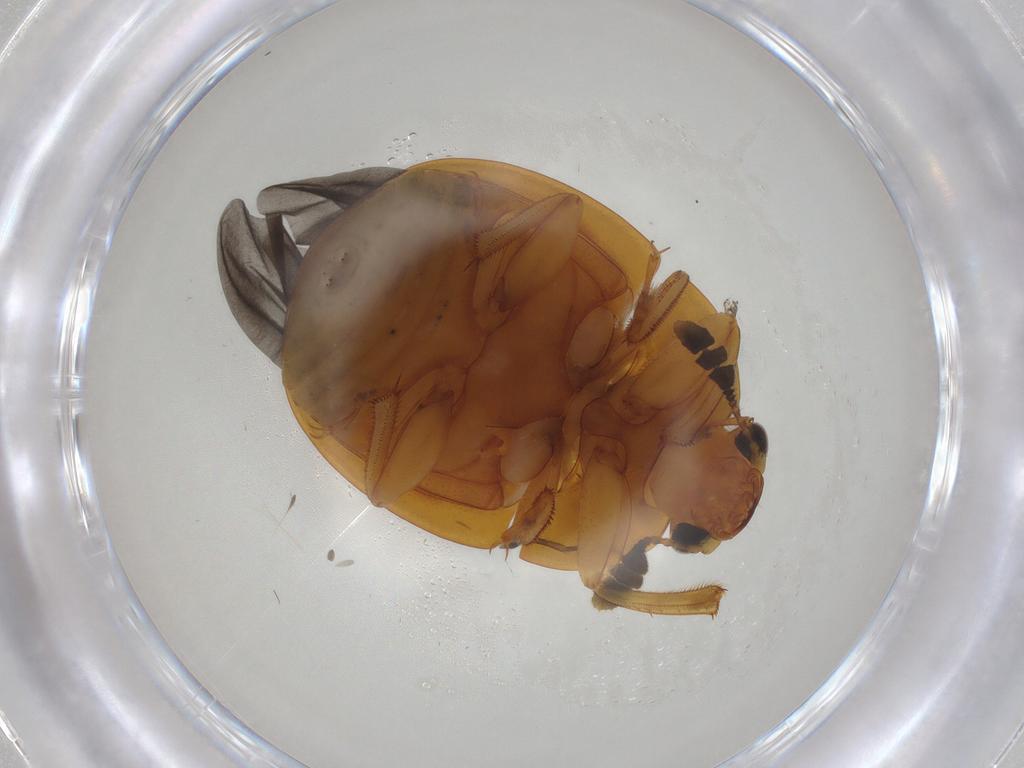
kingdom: Animalia
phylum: Arthropoda
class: Insecta
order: Coleoptera
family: Nitidulidae
